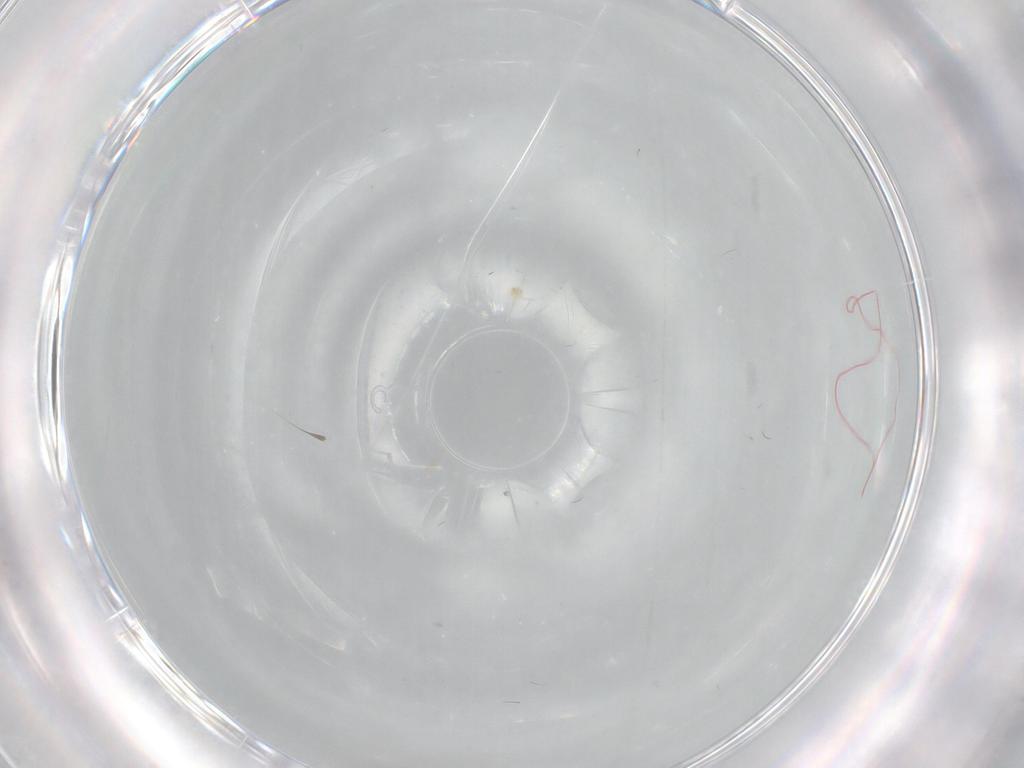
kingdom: Animalia
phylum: Arthropoda
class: Insecta
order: Diptera
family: Cecidomyiidae
